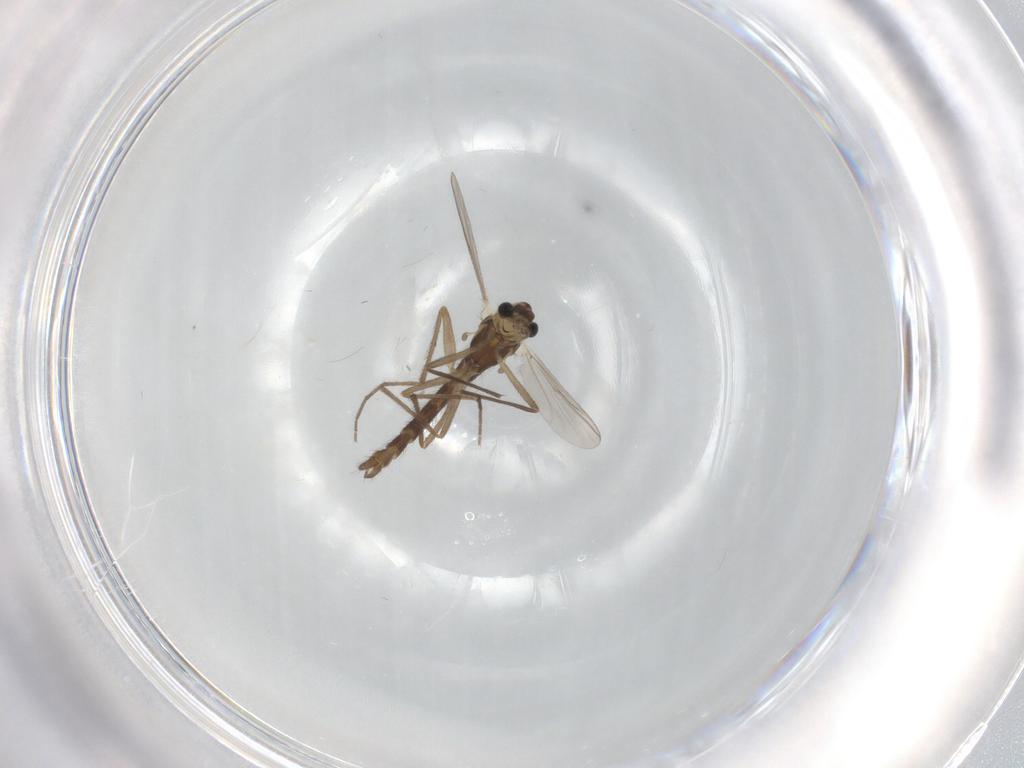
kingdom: Animalia
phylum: Arthropoda
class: Insecta
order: Diptera
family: Chironomidae
